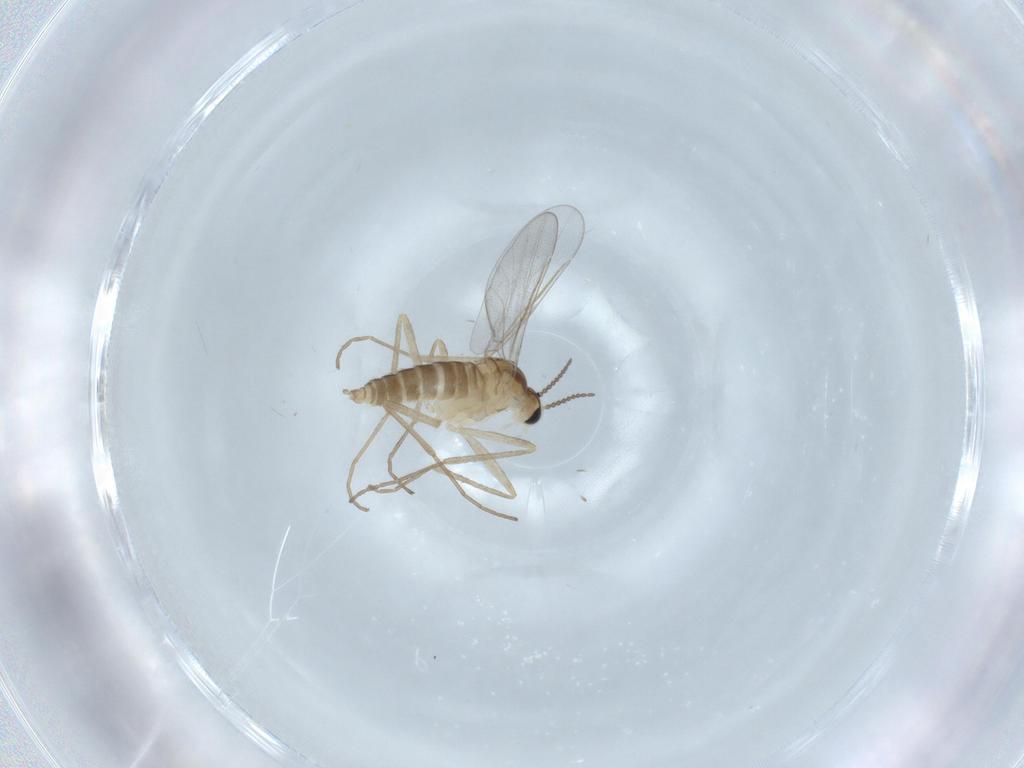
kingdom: Animalia
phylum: Arthropoda
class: Insecta
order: Diptera
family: Cecidomyiidae
